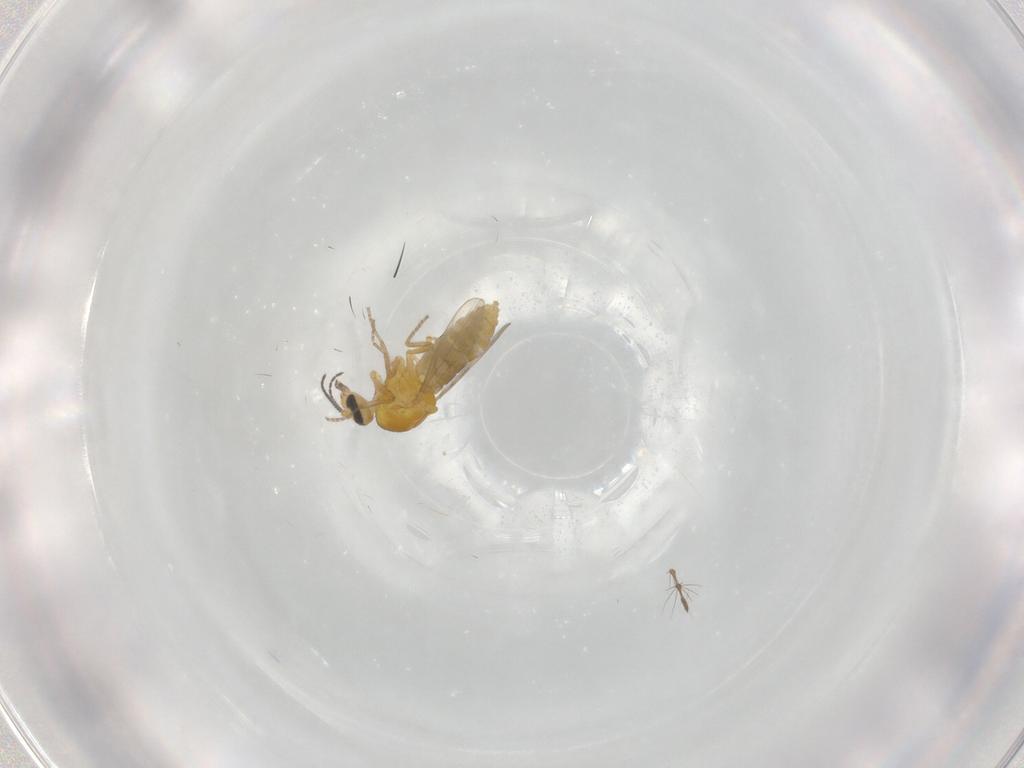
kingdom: Animalia
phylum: Arthropoda
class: Insecta
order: Diptera
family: Ceratopogonidae
